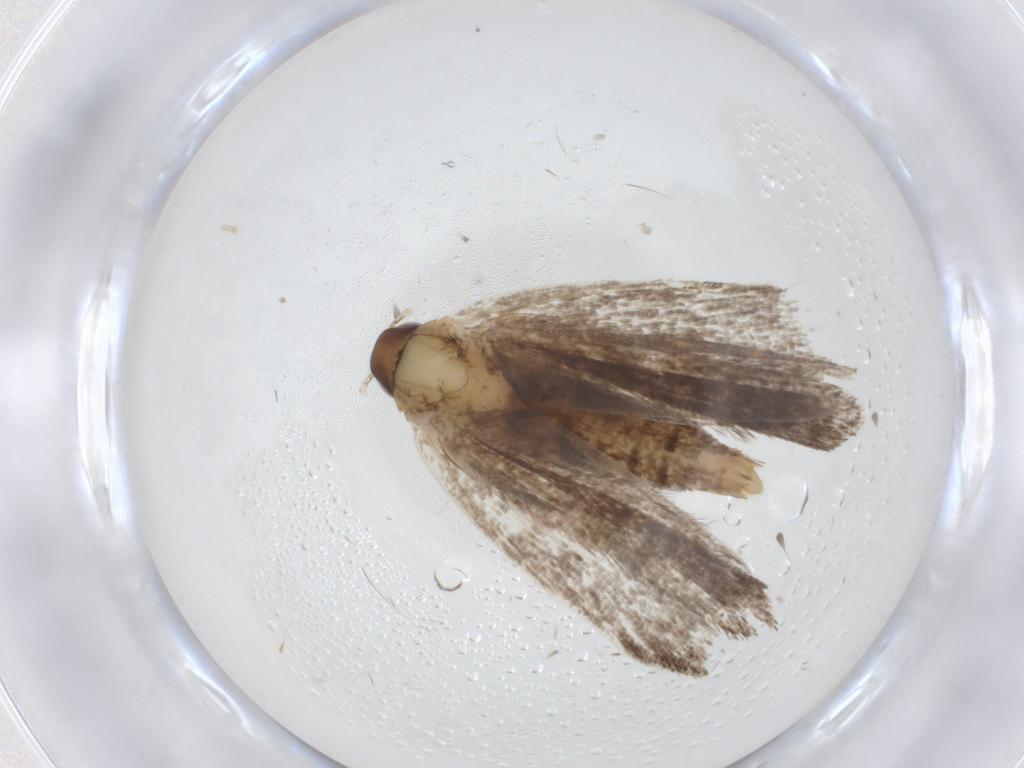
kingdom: Animalia
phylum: Arthropoda
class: Insecta
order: Lepidoptera
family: Gelechiidae
